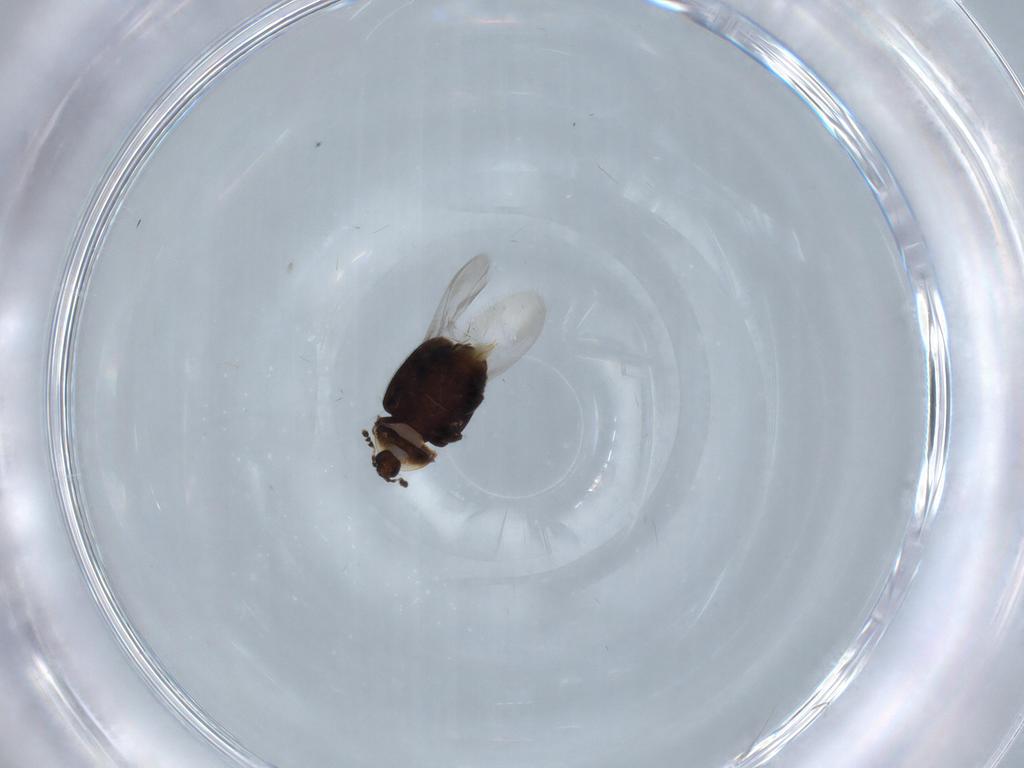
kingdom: Animalia
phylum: Arthropoda
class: Insecta
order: Coleoptera
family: Corylophidae
